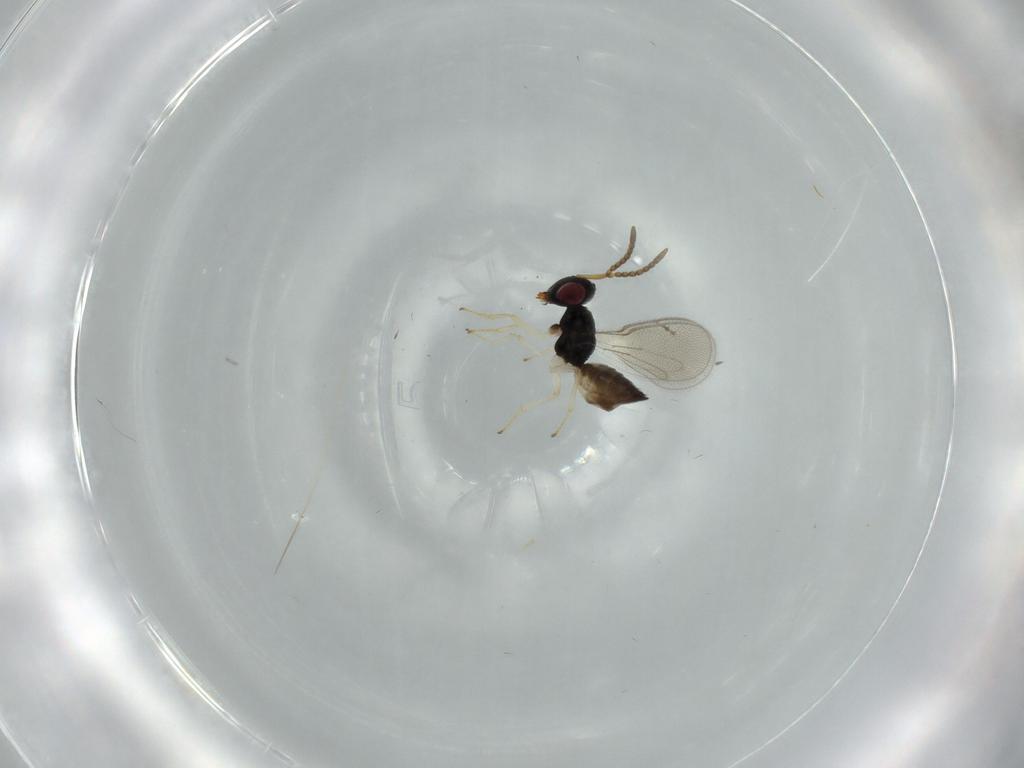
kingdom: Animalia
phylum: Arthropoda
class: Insecta
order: Hymenoptera
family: Pteromalidae
